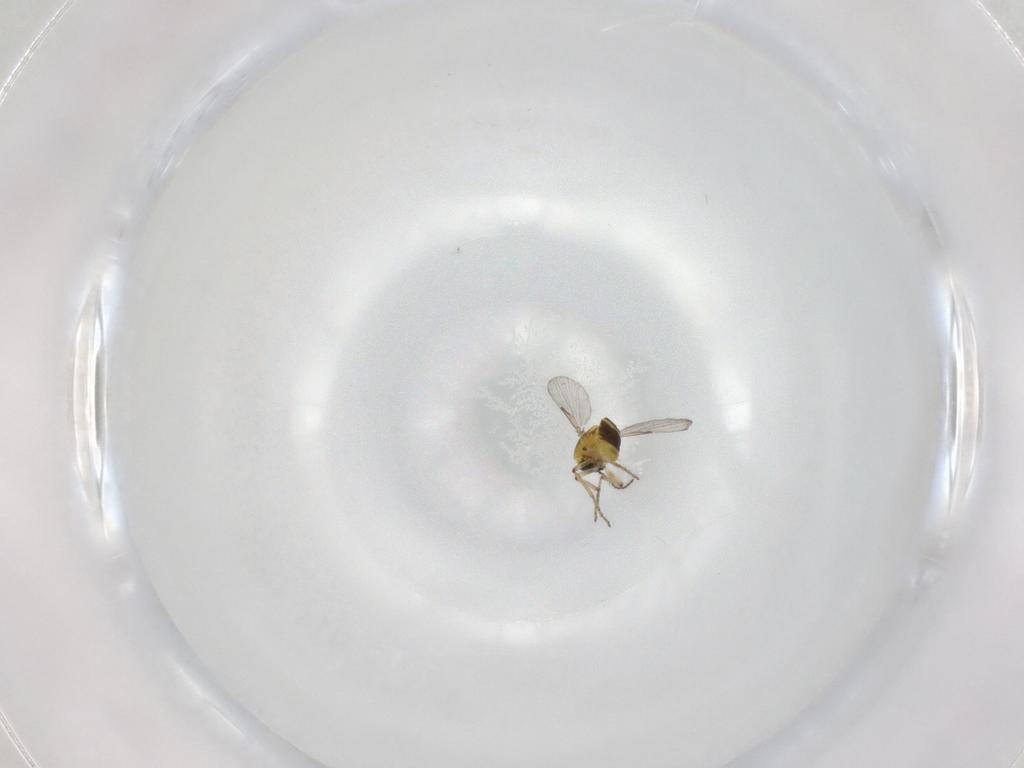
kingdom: Animalia
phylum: Arthropoda
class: Insecta
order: Diptera
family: Ceratopogonidae
